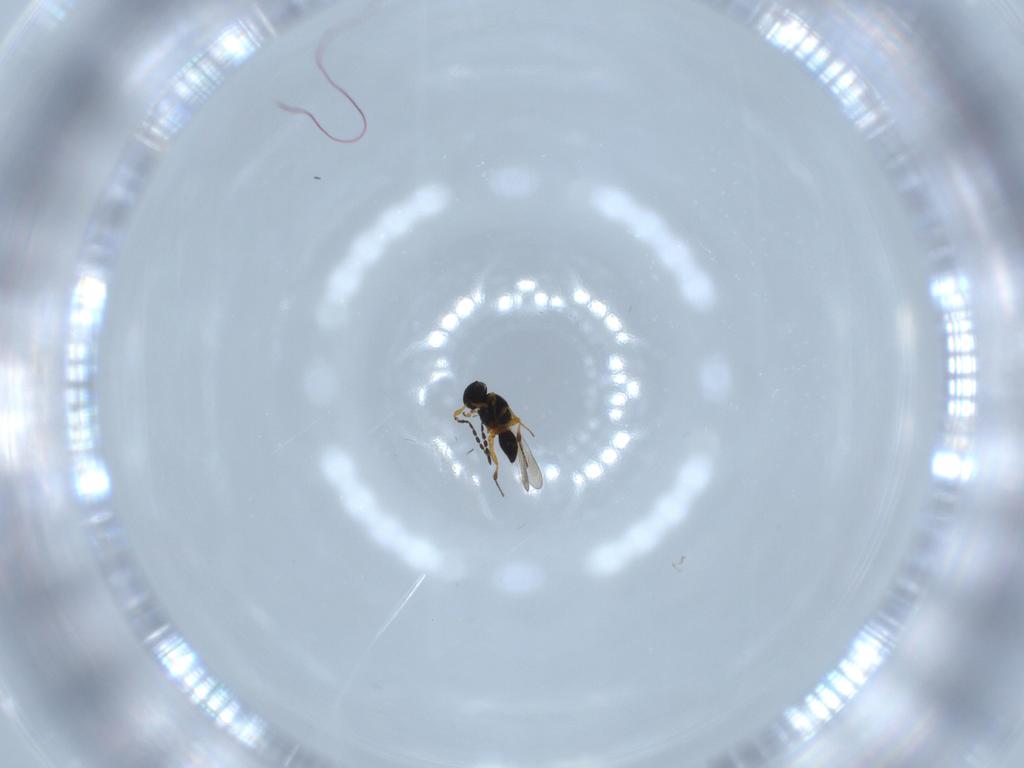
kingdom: Animalia
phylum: Arthropoda
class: Insecta
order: Hymenoptera
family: Platygastridae
